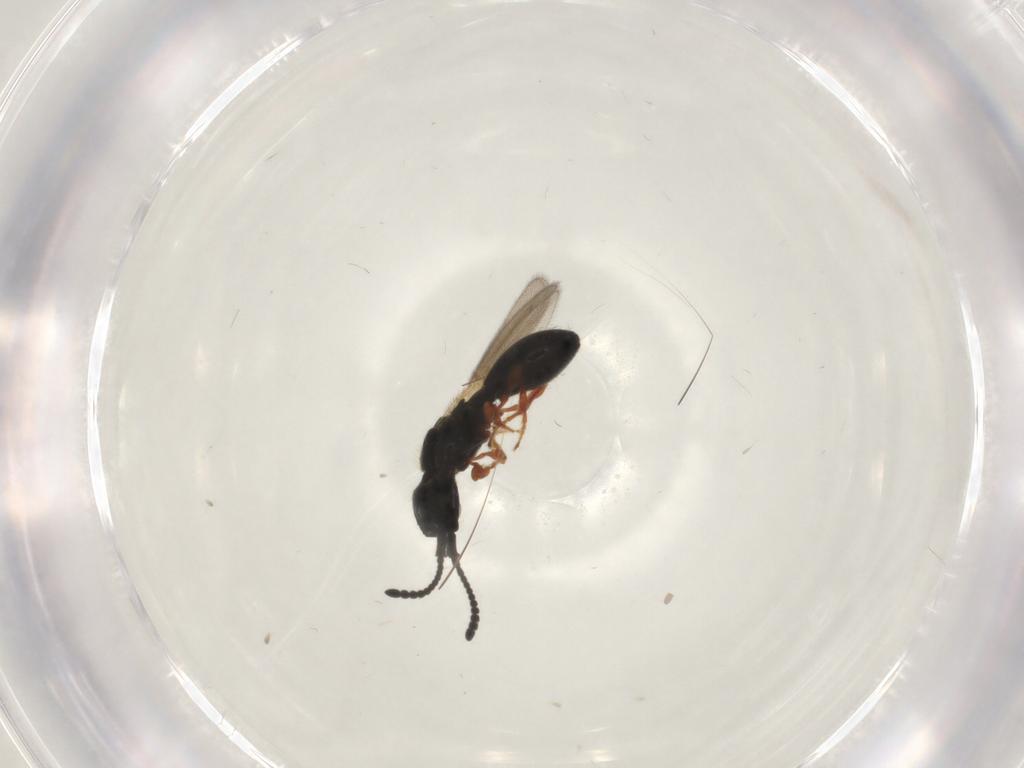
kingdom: Animalia
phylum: Arthropoda
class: Insecta
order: Hymenoptera
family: Diapriidae
